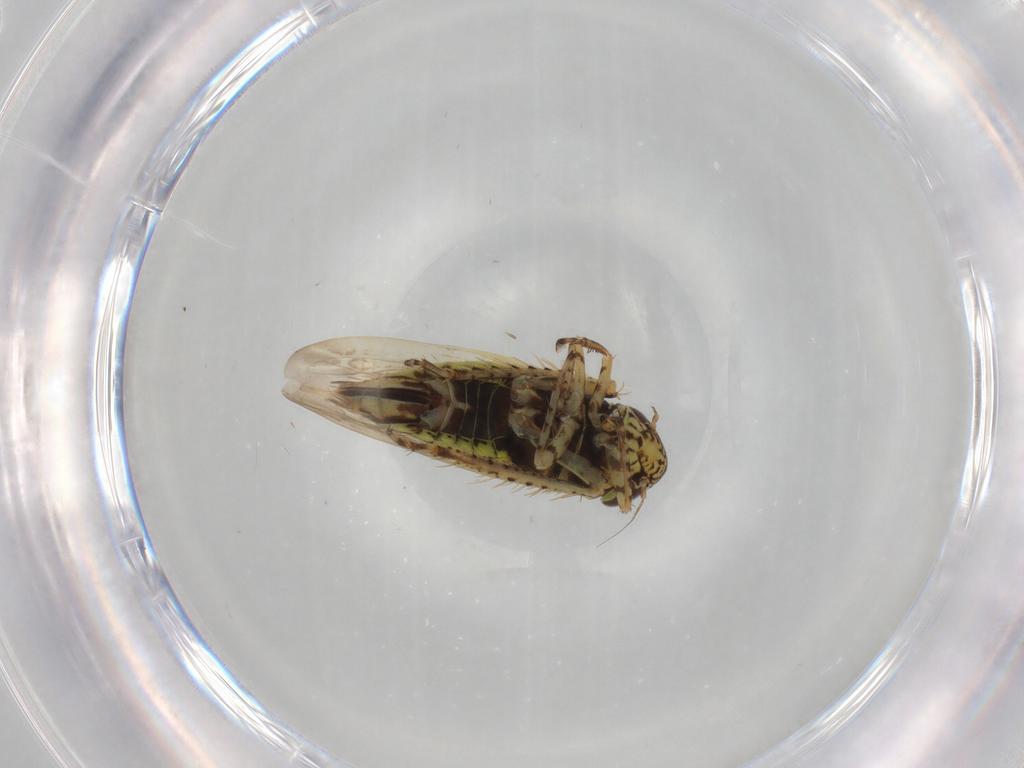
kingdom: Animalia
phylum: Arthropoda
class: Insecta
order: Hemiptera
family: Cicadellidae
